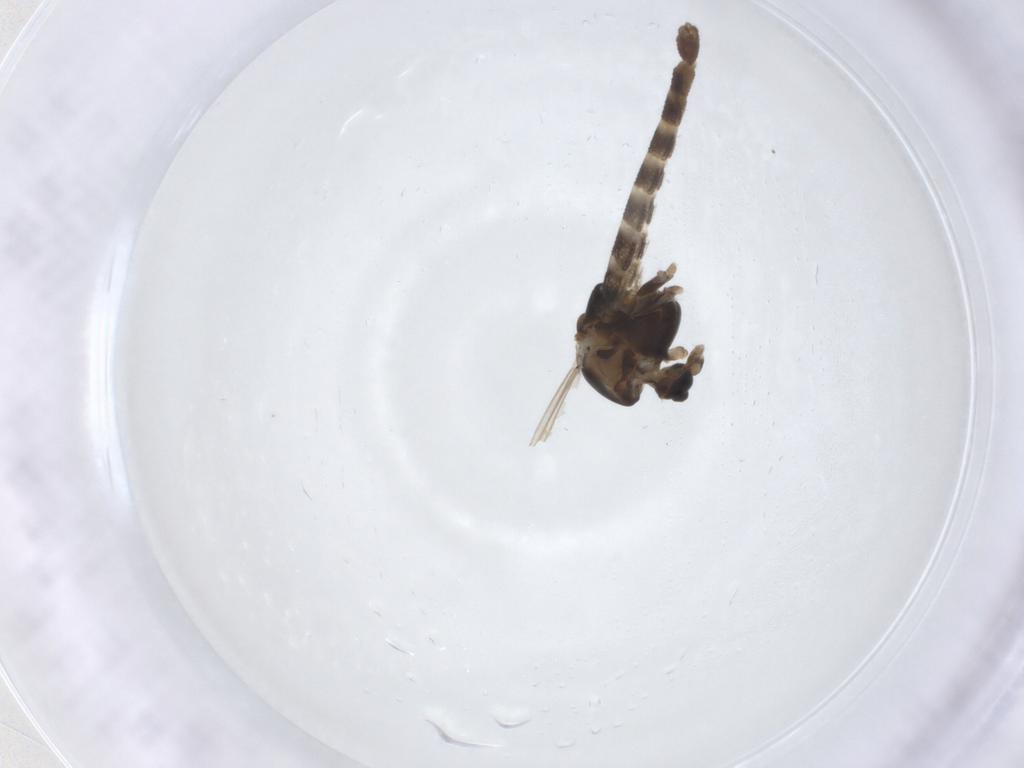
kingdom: Animalia
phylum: Arthropoda
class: Insecta
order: Diptera
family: Chironomidae
